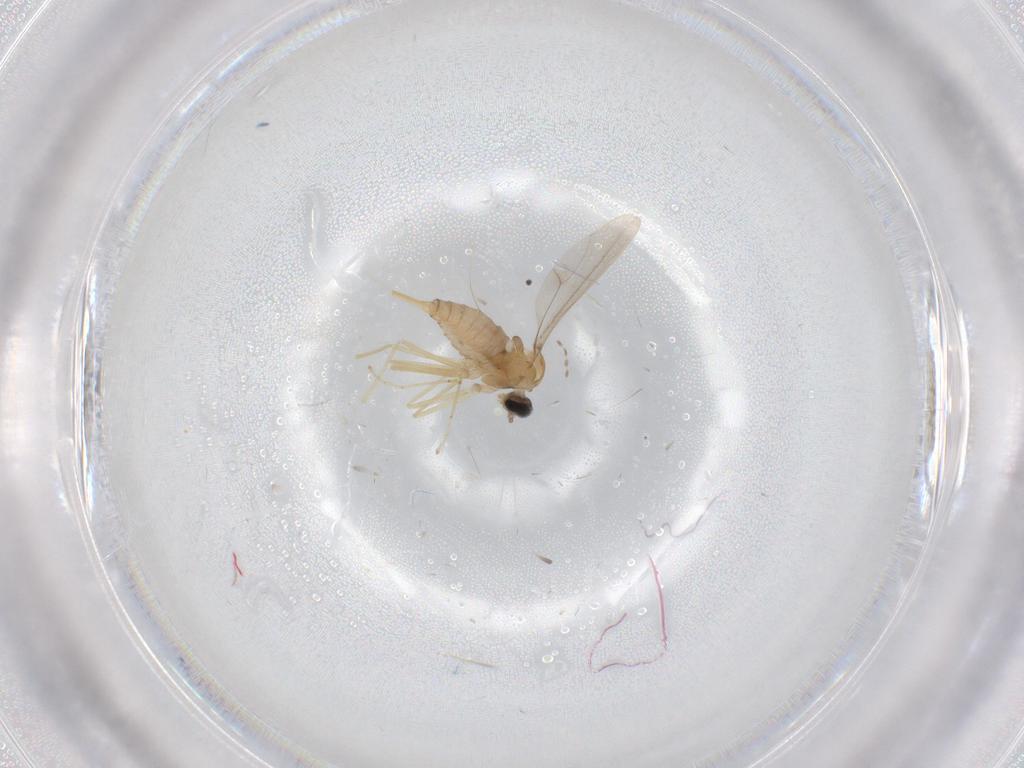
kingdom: Animalia
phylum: Arthropoda
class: Insecta
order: Diptera
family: Cecidomyiidae
